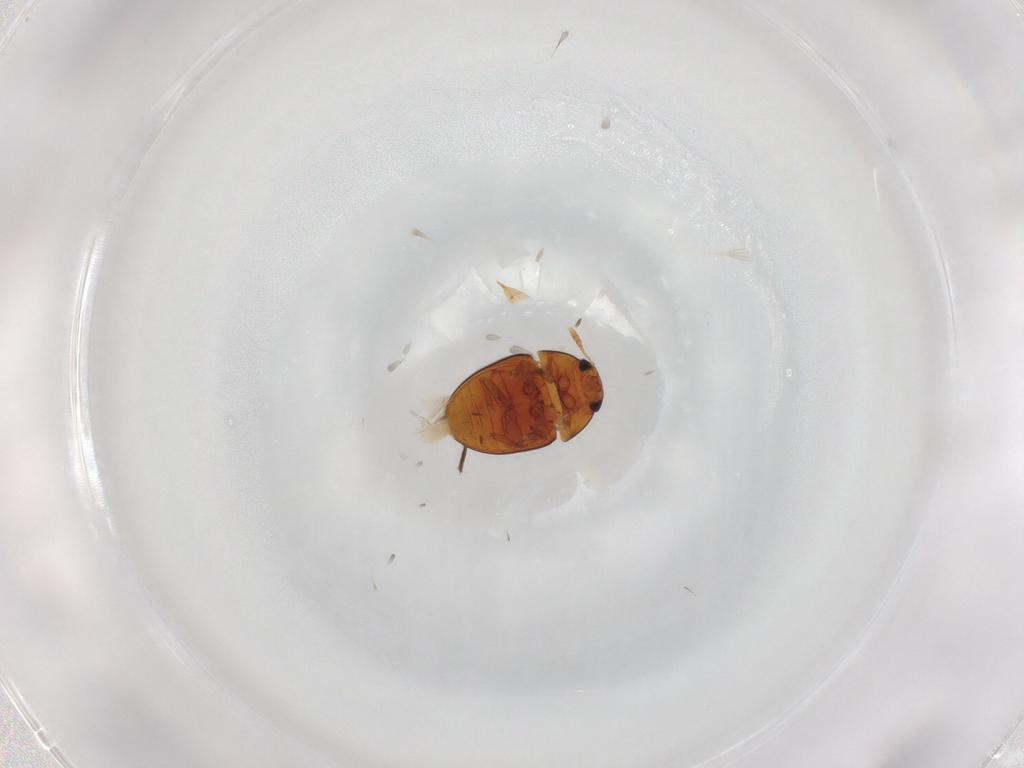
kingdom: Animalia
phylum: Arthropoda
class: Insecta
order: Coleoptera
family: Phalacridae
